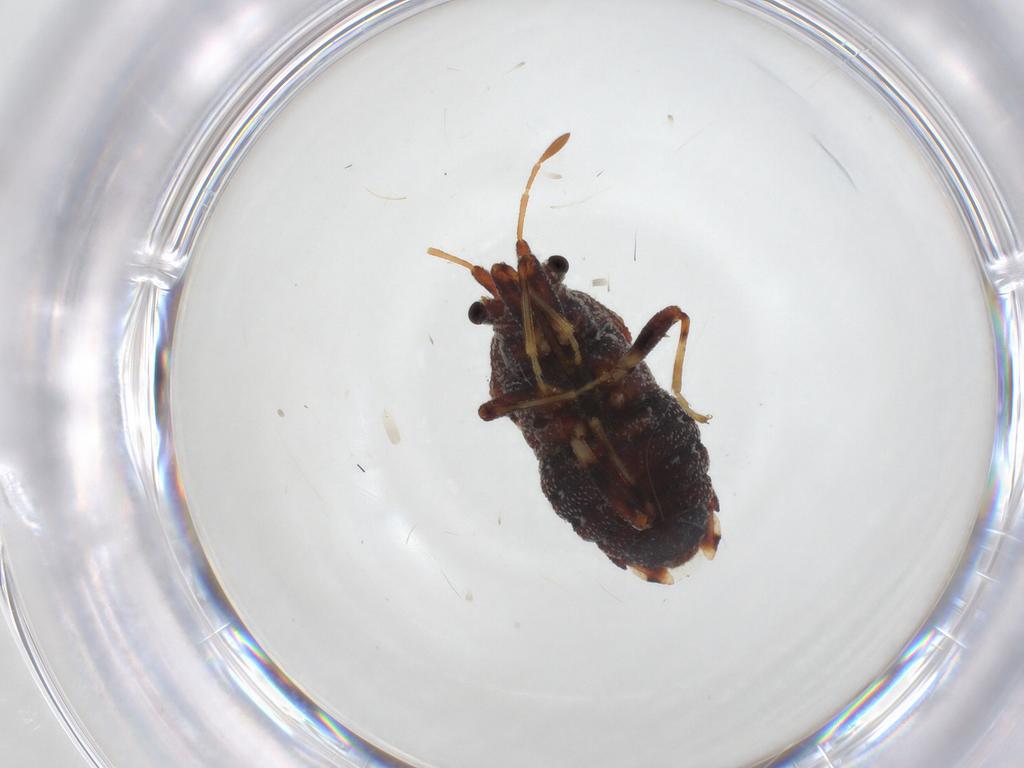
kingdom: Animalia
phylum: Arthropoda
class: Insecta
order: Hemiptera
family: Malcidae
